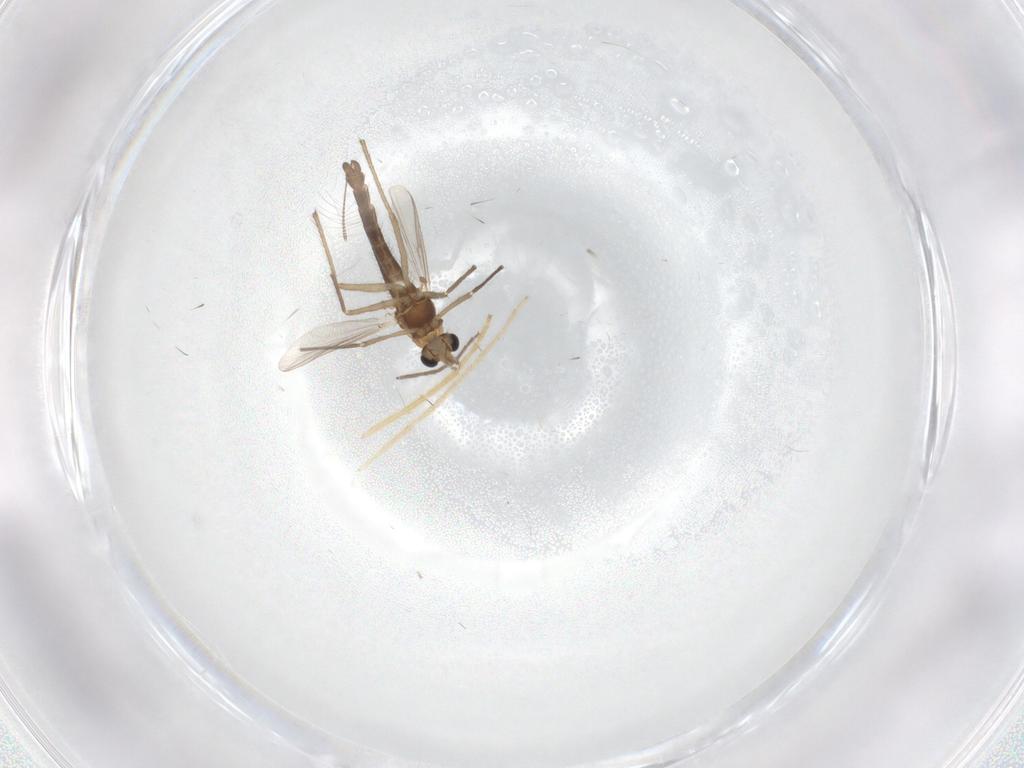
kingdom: Animalia
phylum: Arthropoda
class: Insecta
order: Diptera
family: Chironomidae
